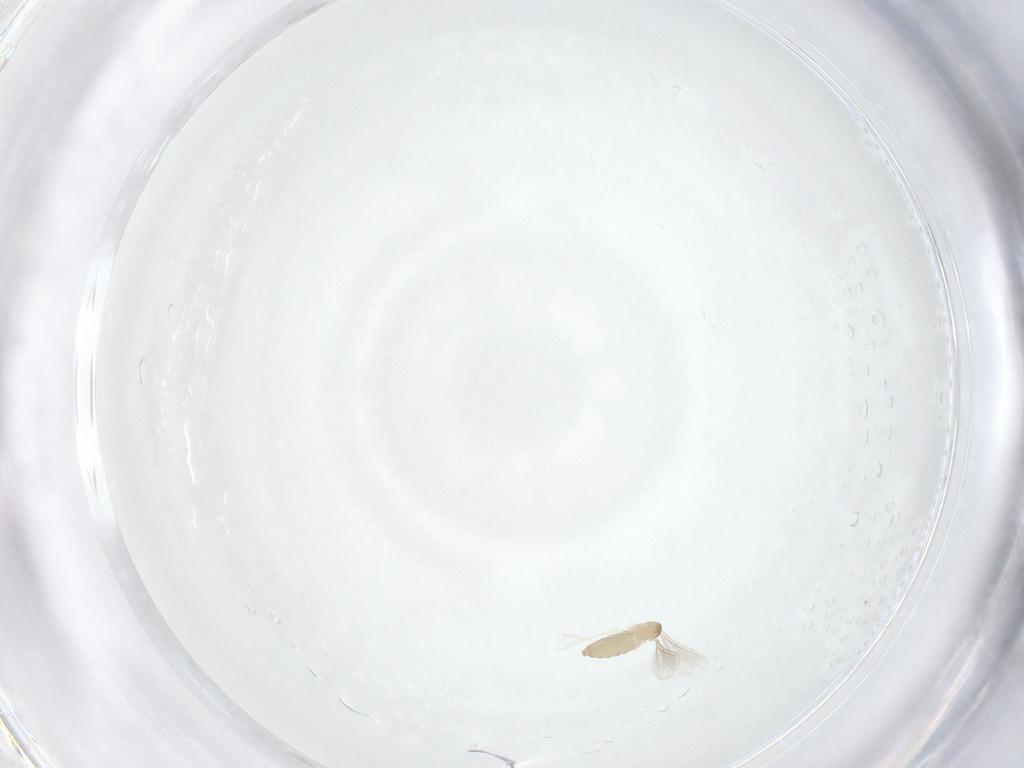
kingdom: Animalia
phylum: Arthropoda
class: Insecta
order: Diptera
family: Cecidomyiidae
